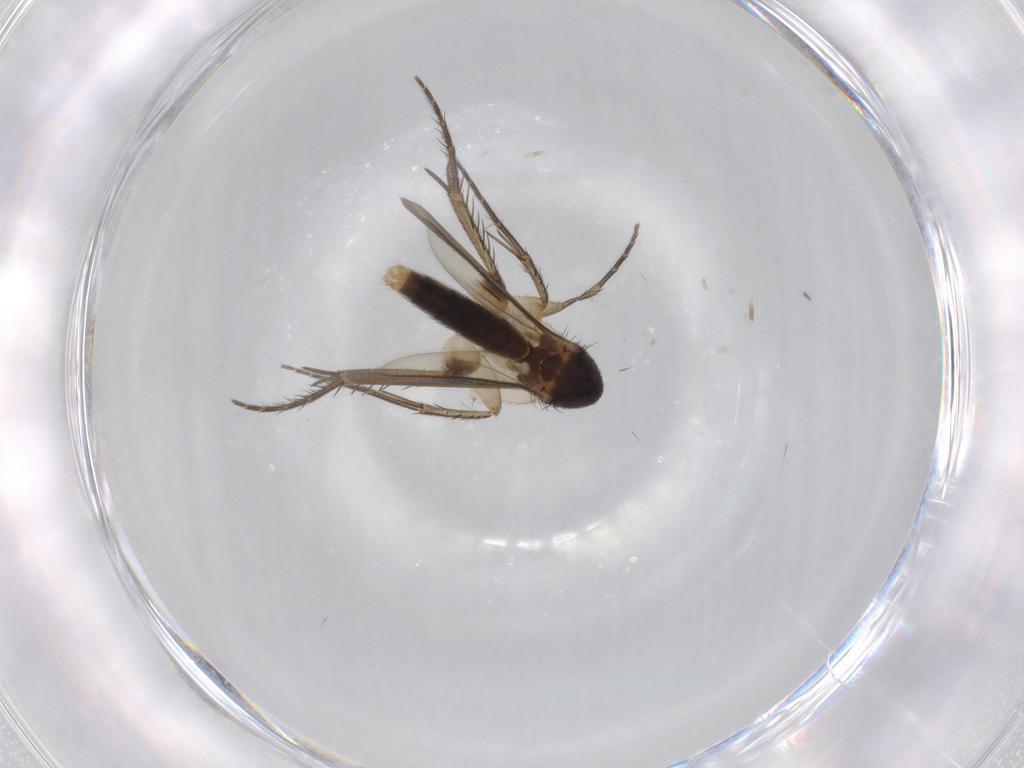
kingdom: Animalia
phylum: Arthropoda
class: Insecta
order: Diptera
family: Mycetophilidae
